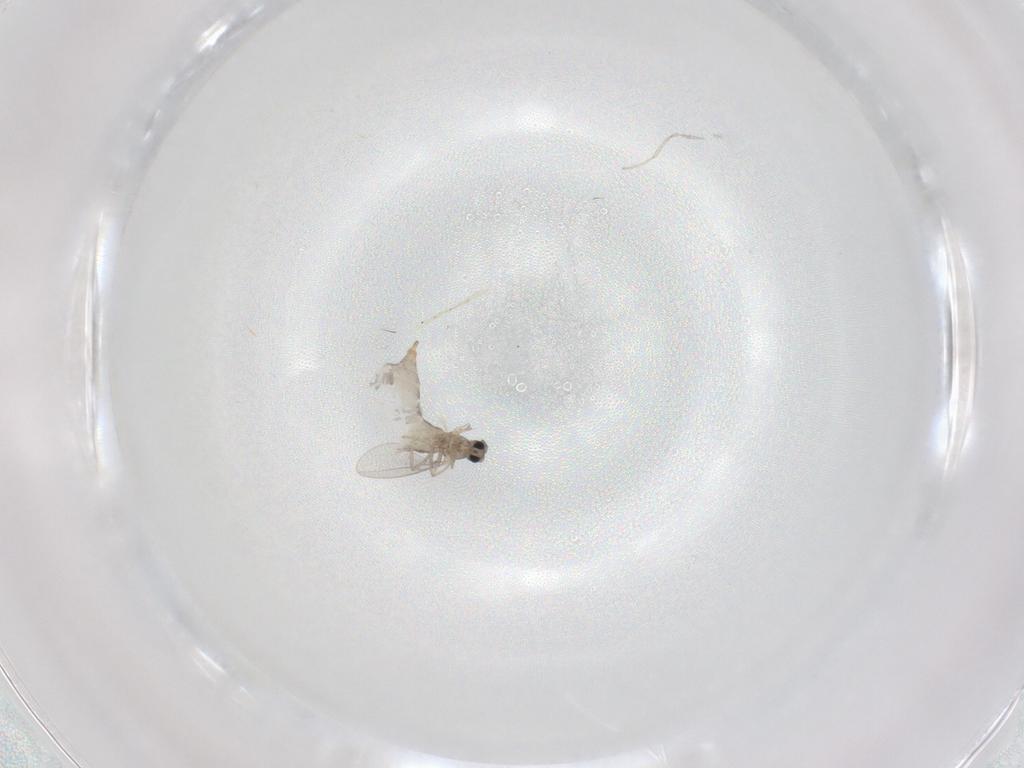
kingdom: Animalia
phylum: Arthropoda
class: Insecta
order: Diptera
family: Cecidomyiidae
